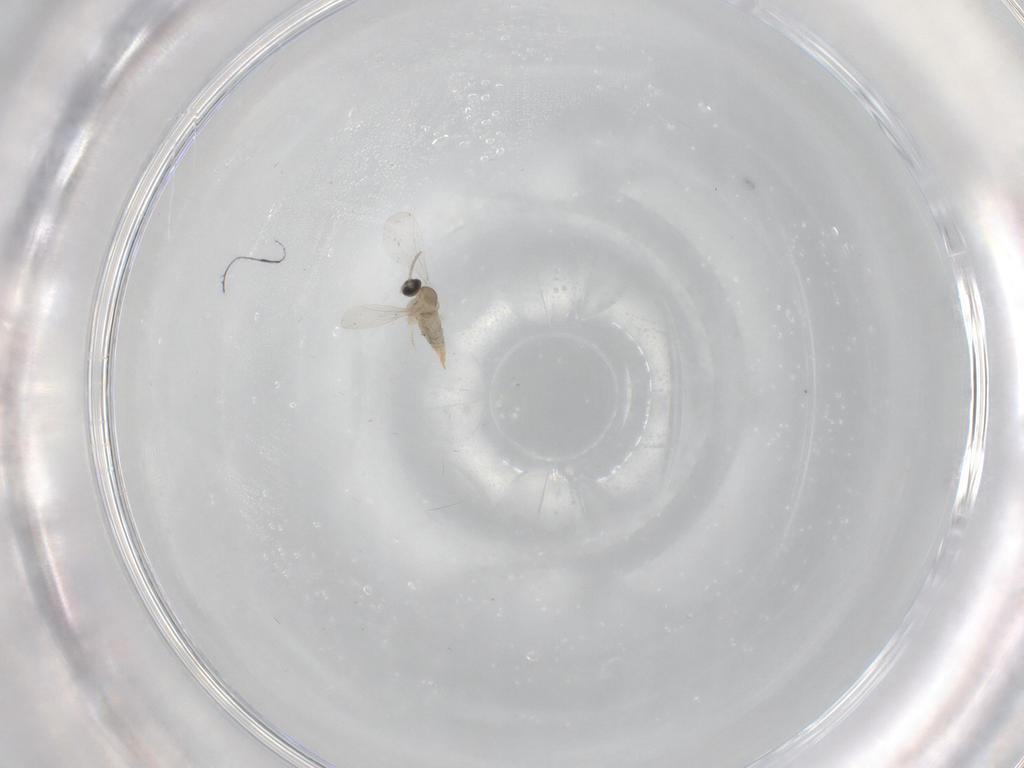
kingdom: Animalia
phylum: Arthropoda
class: Insecta
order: Diptera
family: Cecidomyiidae
